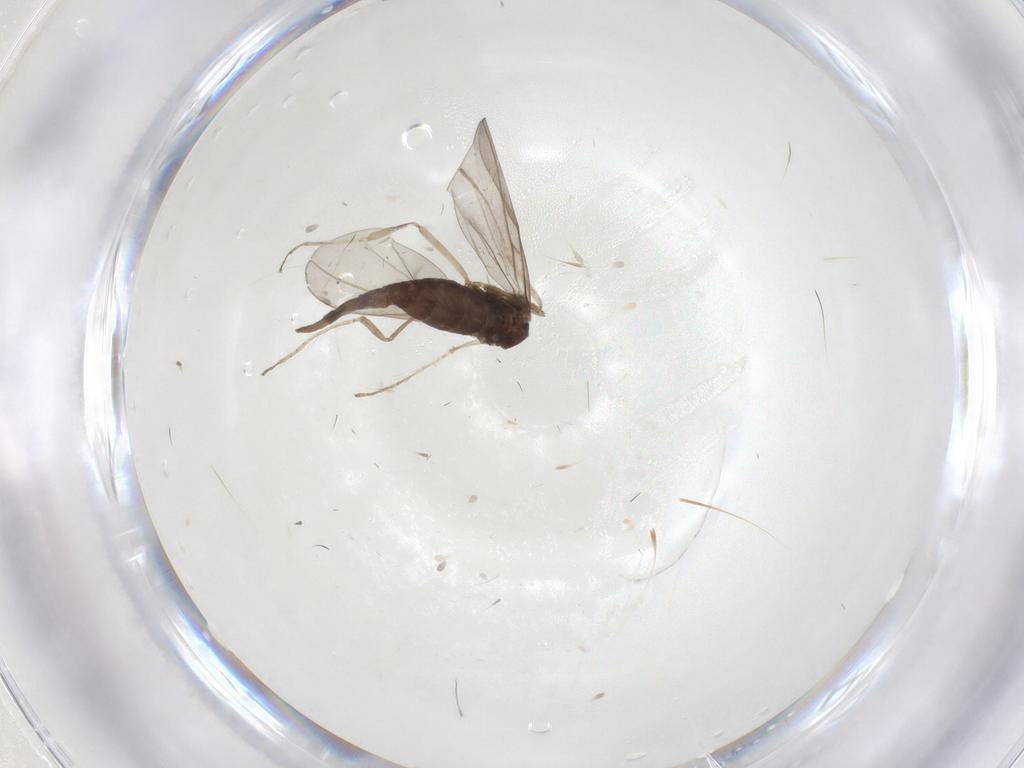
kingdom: Animalia
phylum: Arthropoda
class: Insecta
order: Diptera
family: Cecidomyiidae
